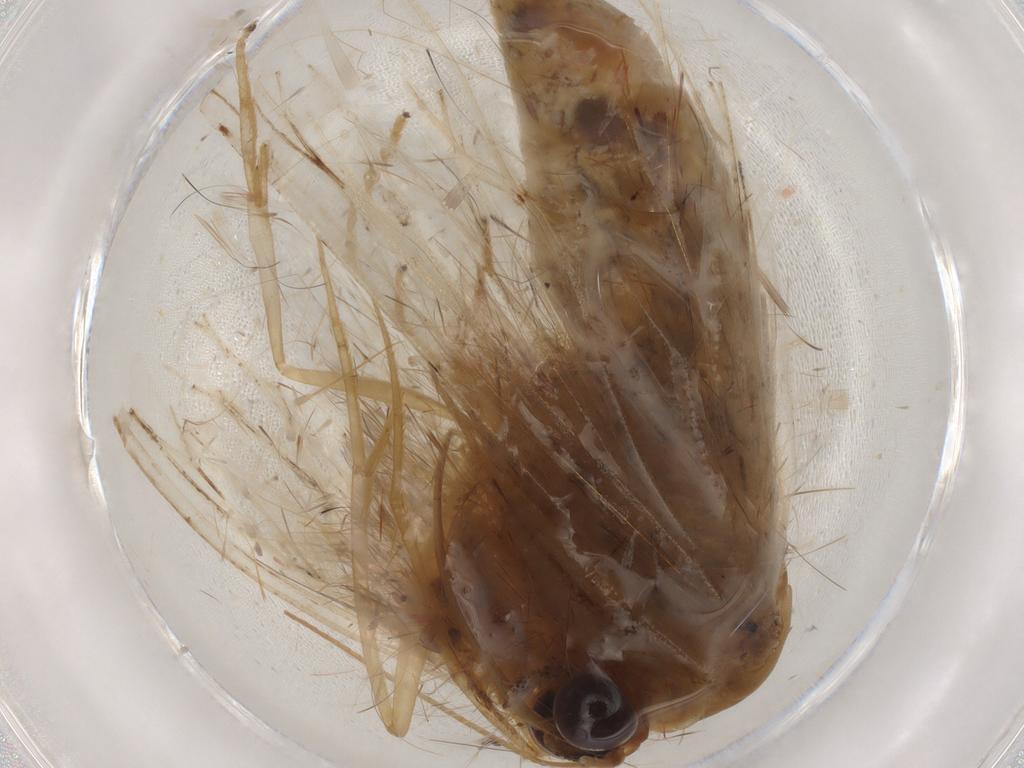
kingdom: Animalia
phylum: Arthropoda
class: Insecta
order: Lepidoptera
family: Geometridae
